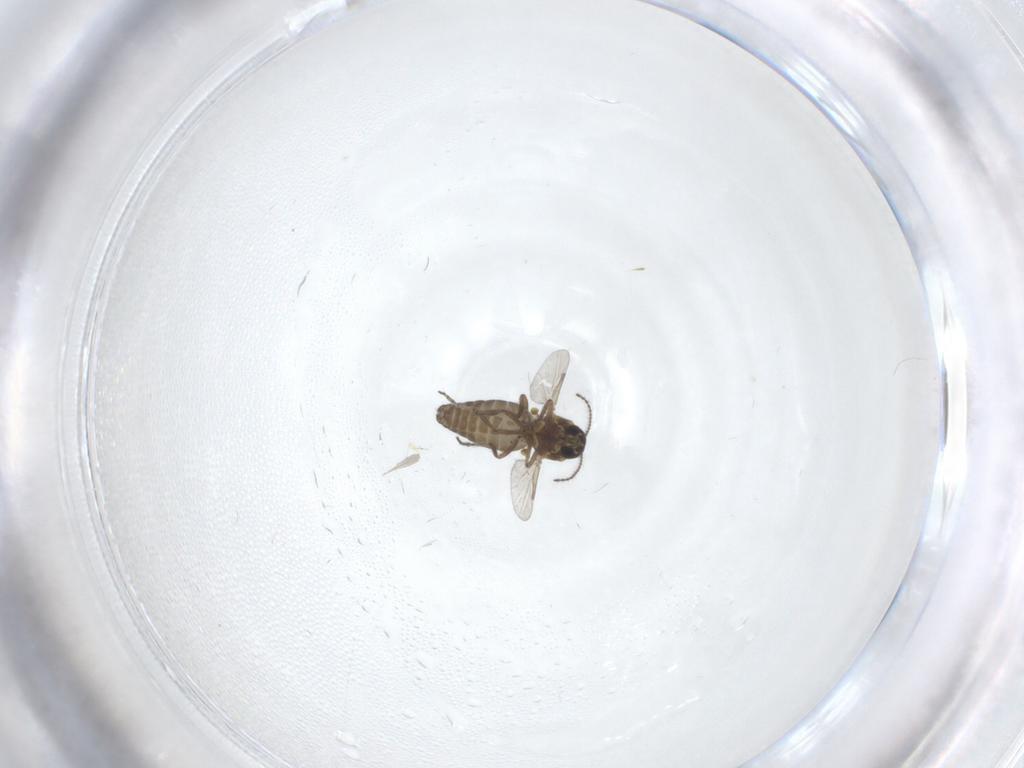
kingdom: Animalia
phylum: Arthropoda
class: Insecta
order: Diptera
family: Ceratopogonidae
